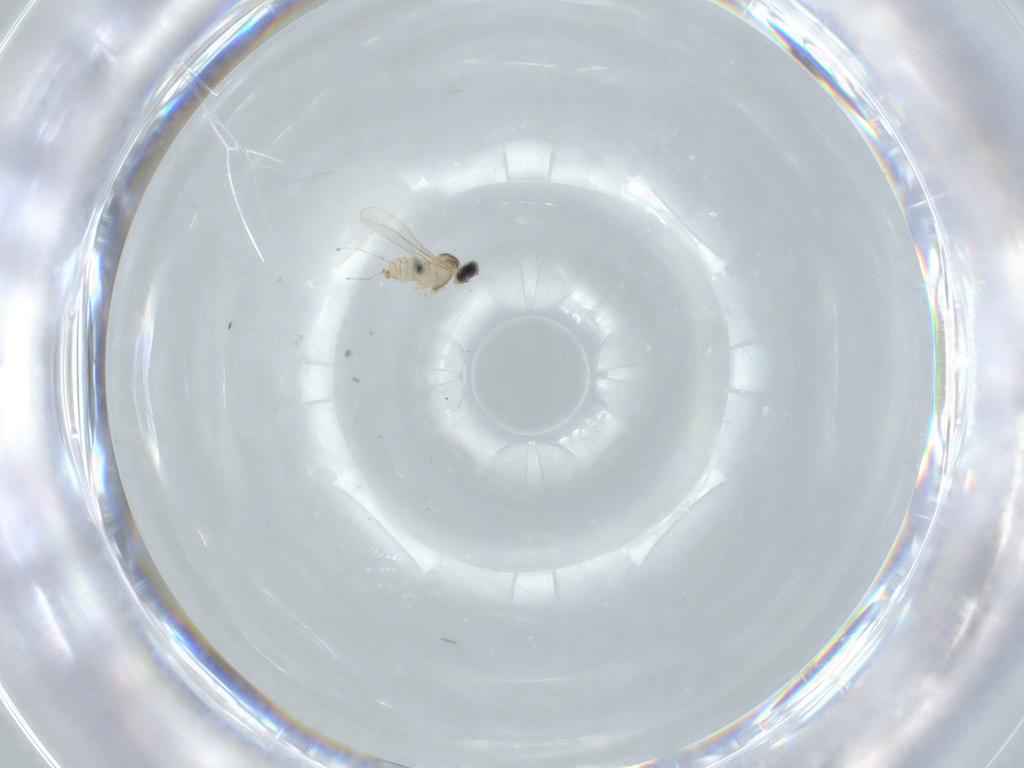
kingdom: Animalia
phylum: Arthropoda
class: Insecta
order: Diptera
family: Cecidomyiidae
